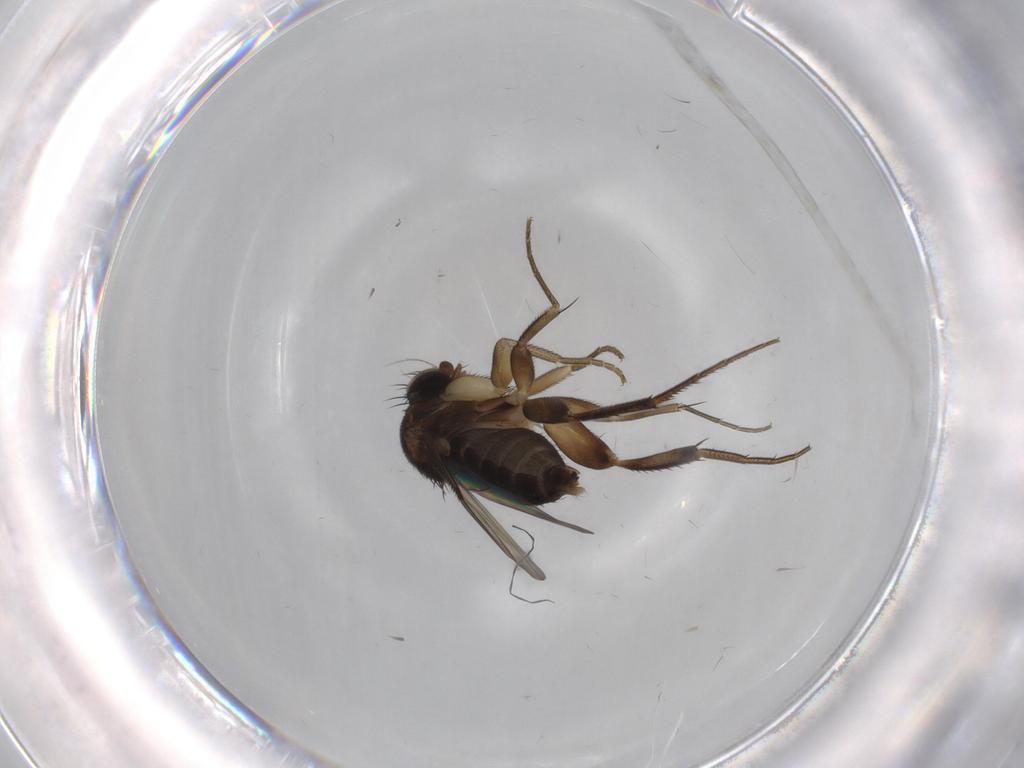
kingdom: Animalia
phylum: Arthropoda
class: Insecta
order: Diptera
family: Phoridae
